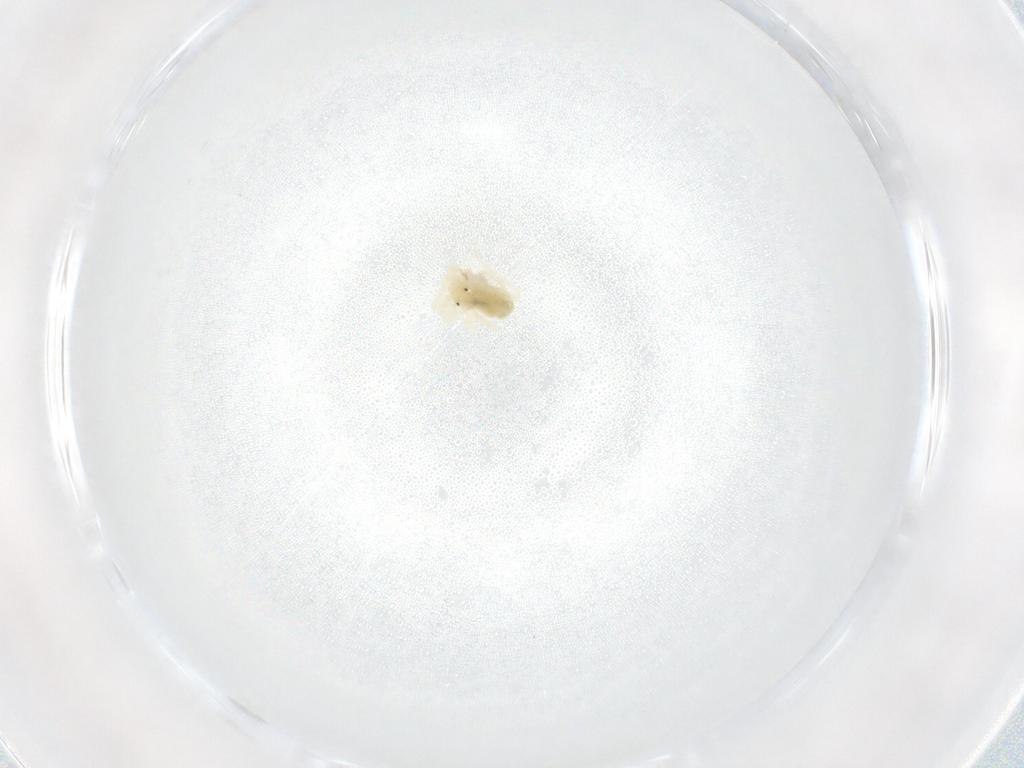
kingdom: Animalia
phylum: Arthropoda
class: Arachnida
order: Trombidiformes
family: Anystidae
